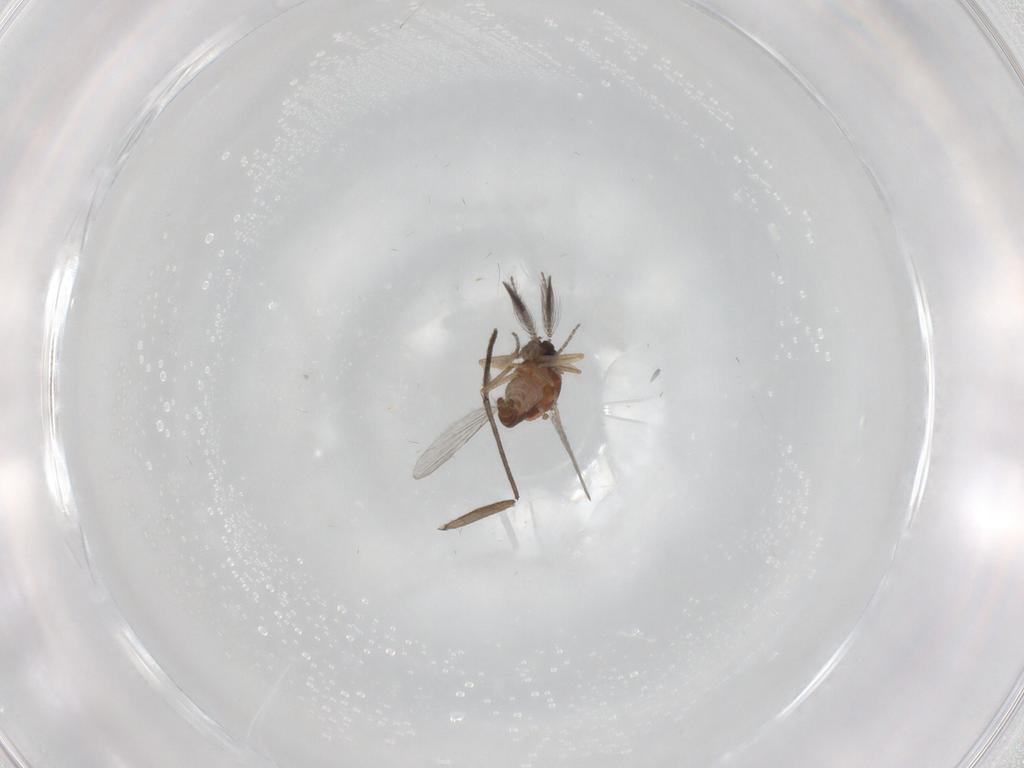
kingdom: Animalia
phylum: Arthropoda
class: Insecta
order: Diptera
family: Ceratopogonidae
